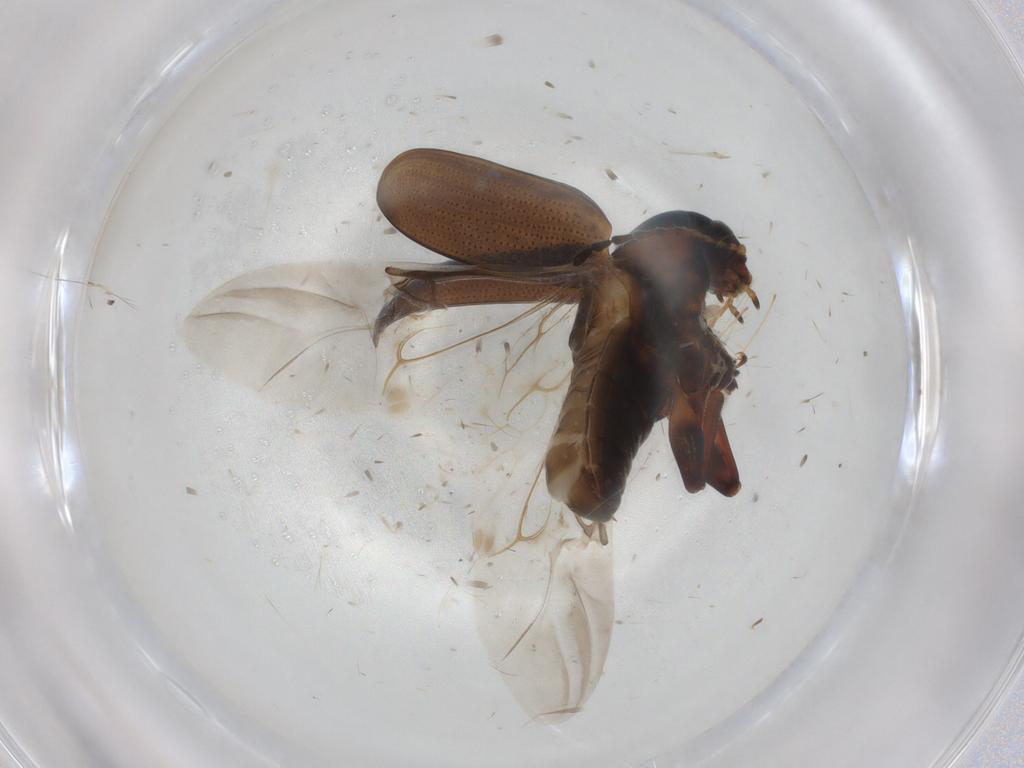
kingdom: Animalia
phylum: Arthropoda
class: Insecta
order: Coleoptera
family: Chrysomelidae
